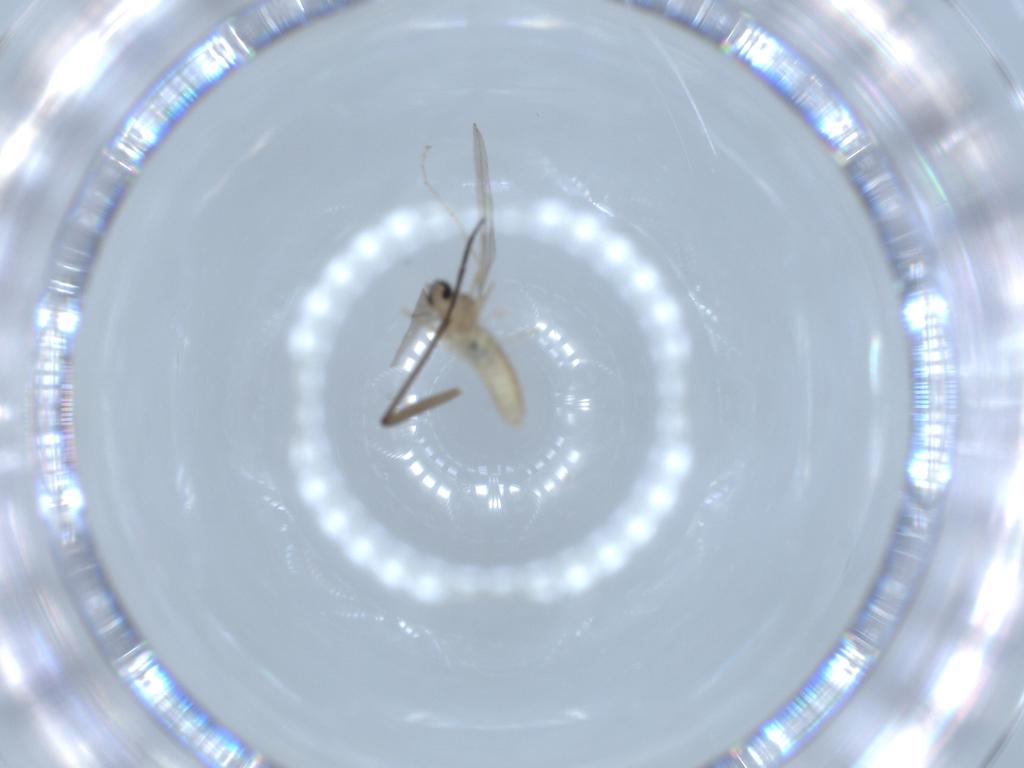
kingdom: Animalia
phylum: Arthropoda
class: Insecta
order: Diptera
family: Cecidomyiidae
